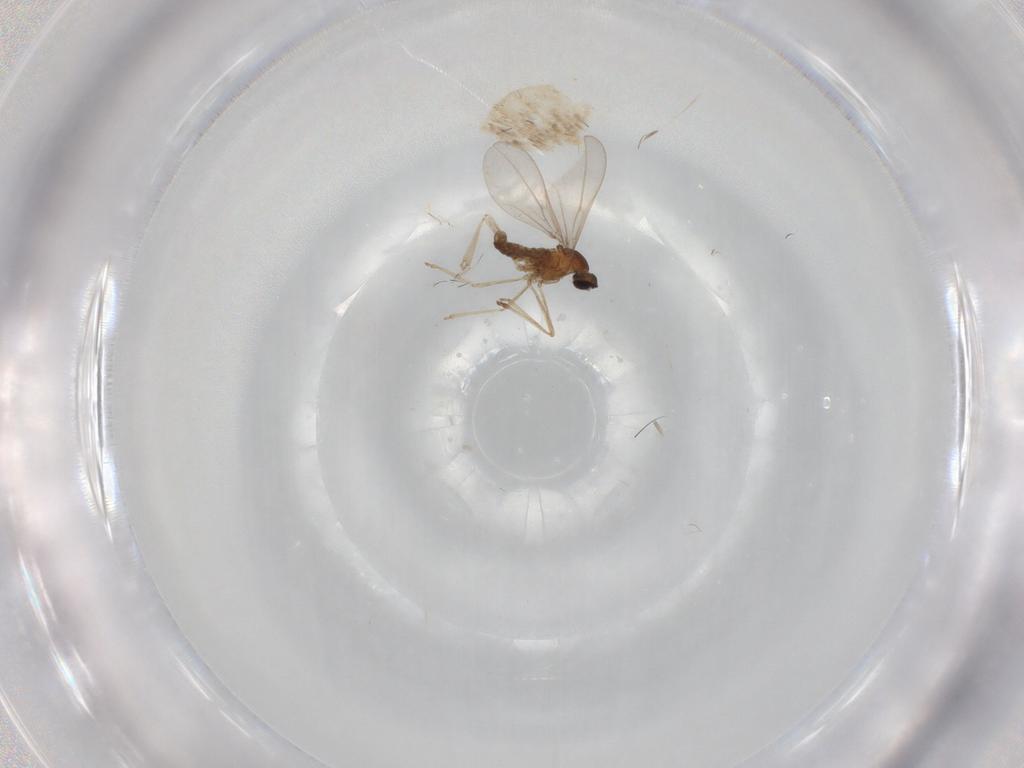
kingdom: Animalia
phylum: Arthropoda
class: Insecta
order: Diptera
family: Cecidomyiidae
